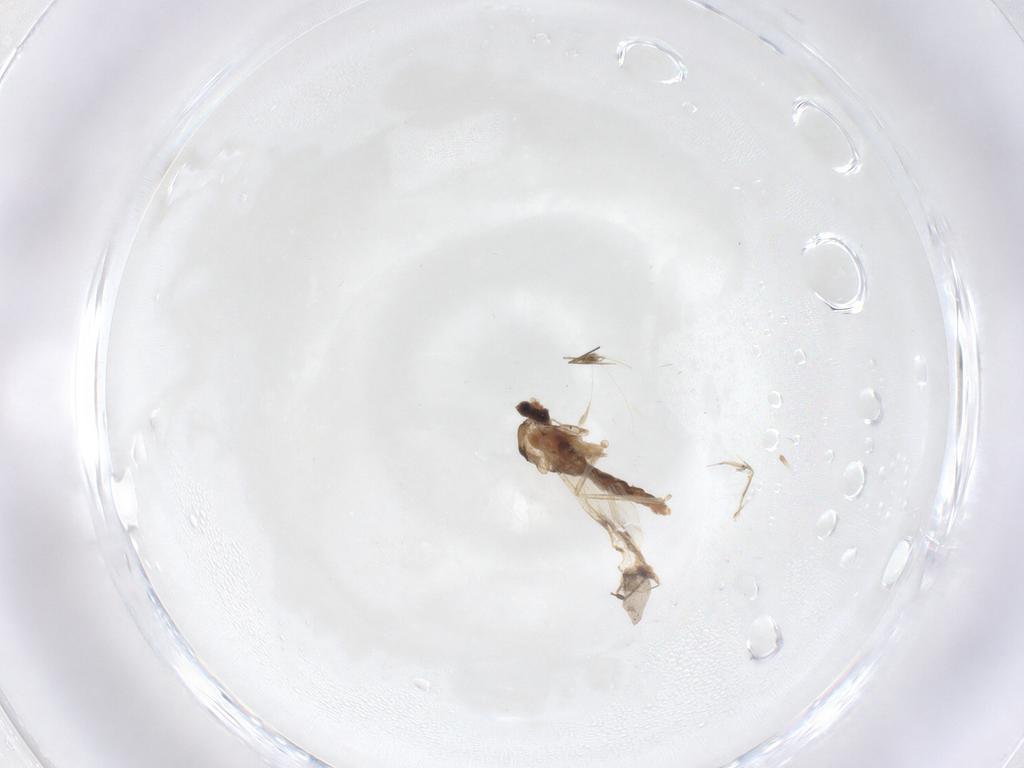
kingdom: Animalia
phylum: Arthropoda
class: Insecta
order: Diptera
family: Cecidomyiidae
